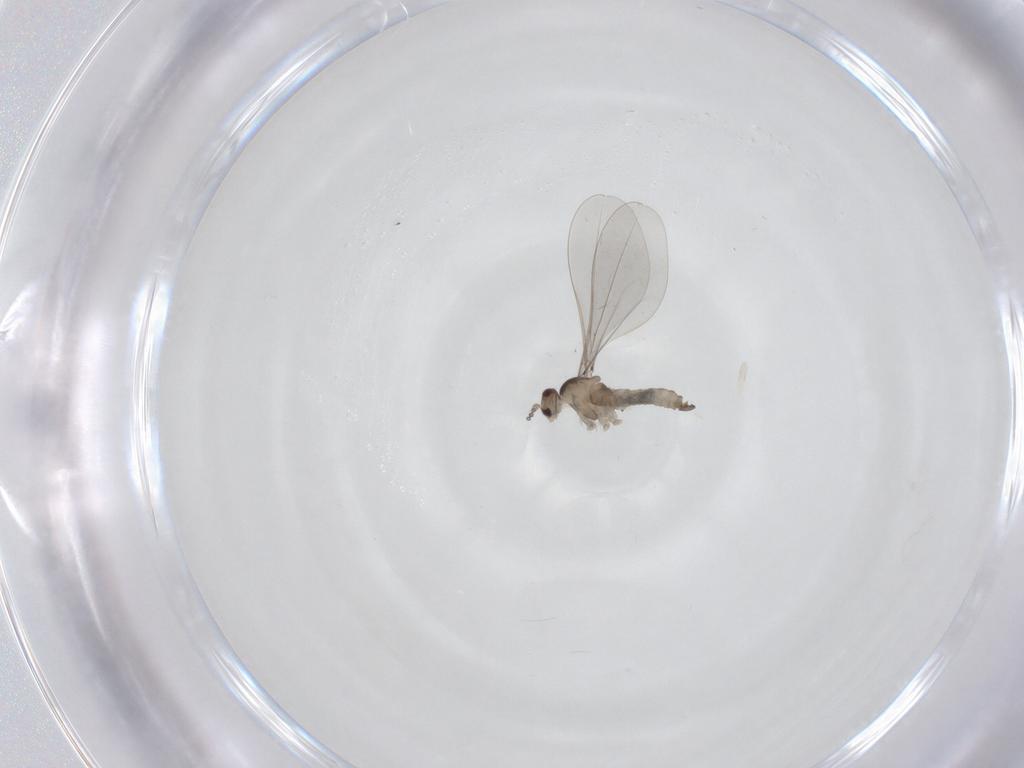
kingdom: Animalia
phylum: Arthropoda
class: Insecta
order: Diptera
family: Cecidomyiidae
